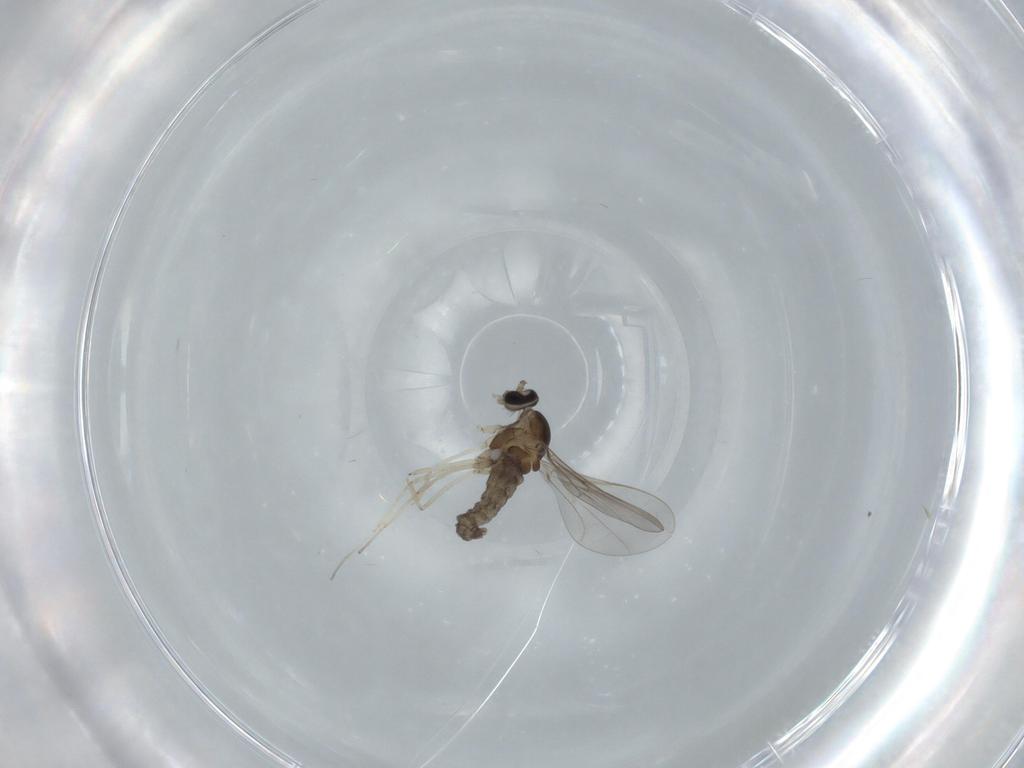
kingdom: Animalia
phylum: Arthropoda
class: Insecta
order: Diptera
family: Cecidomyiidae
